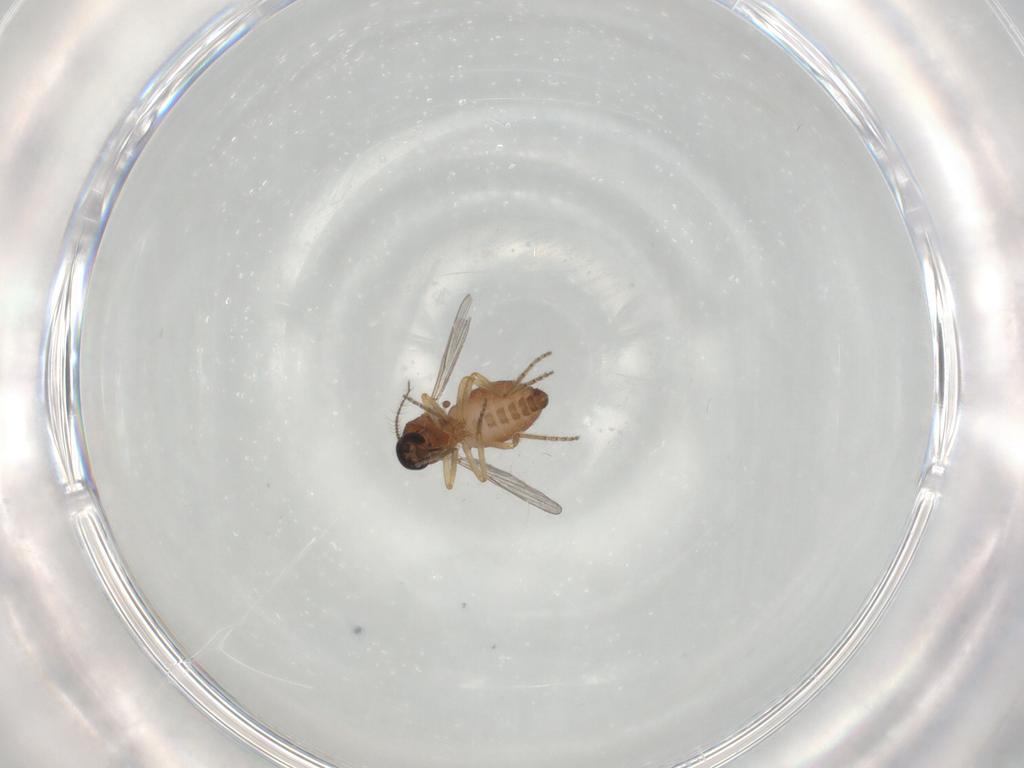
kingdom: Animalia
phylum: Arthropoda
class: Insecta
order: Diptera
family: Ceratopogonidae
